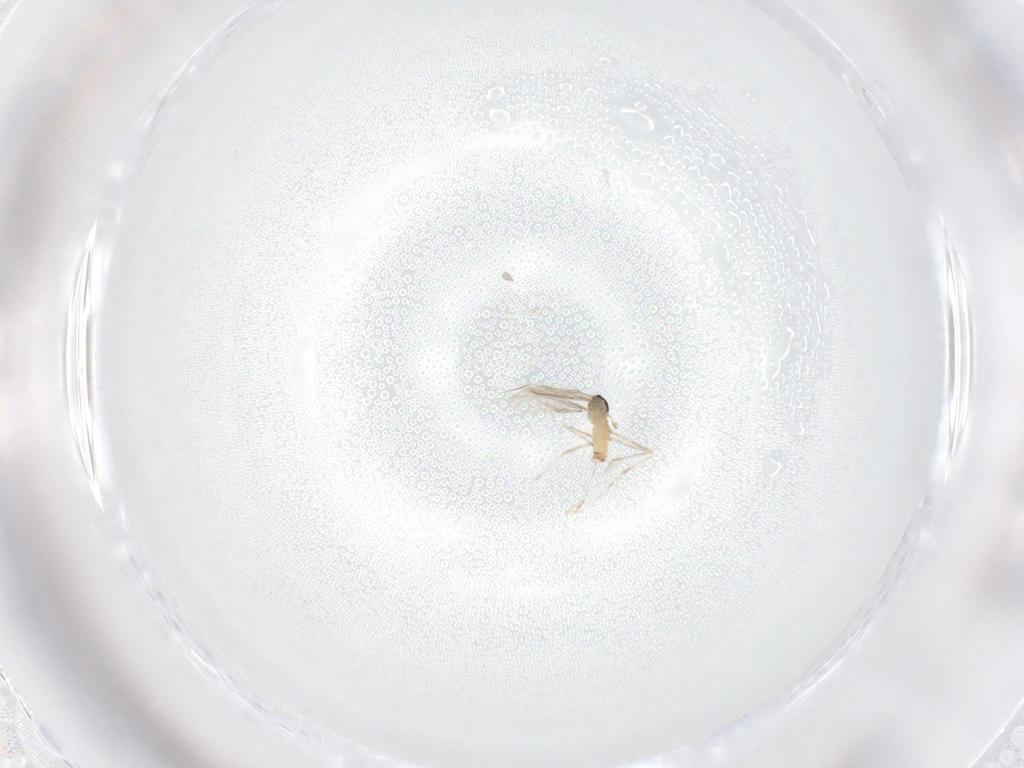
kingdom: Animalia
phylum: Arthropoda
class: Insecta
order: Diptera
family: Cecidomyiidae
